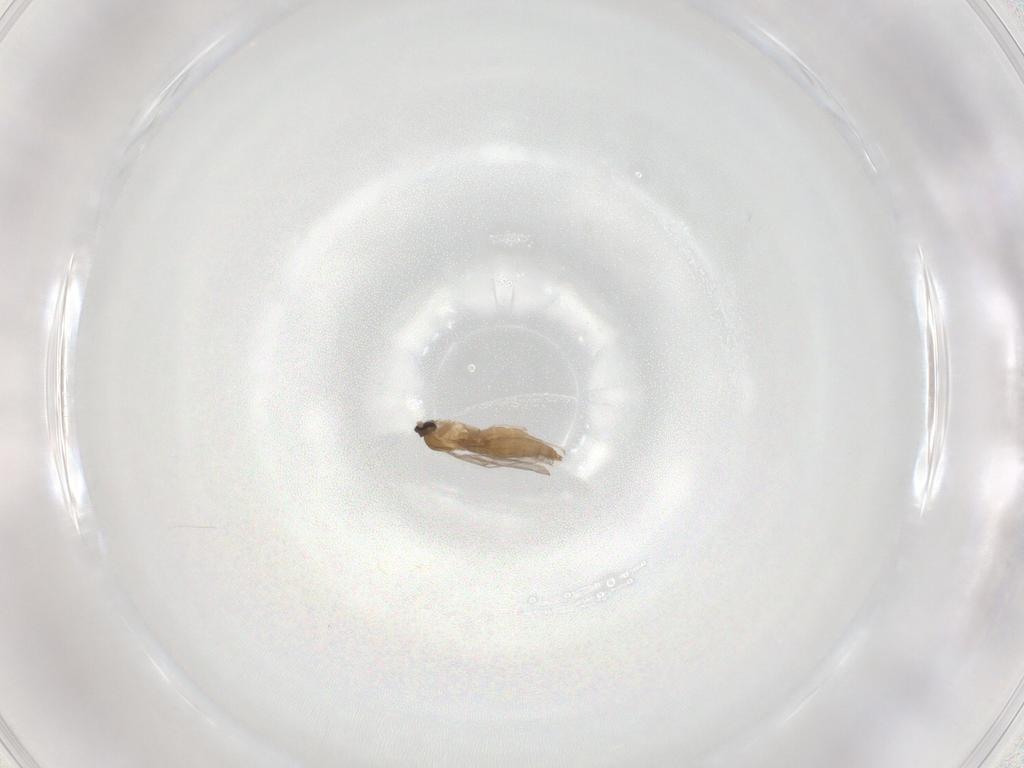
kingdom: Animalia
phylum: Arthropoda
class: Insecta
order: Diptera
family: Cecidomyiidae
